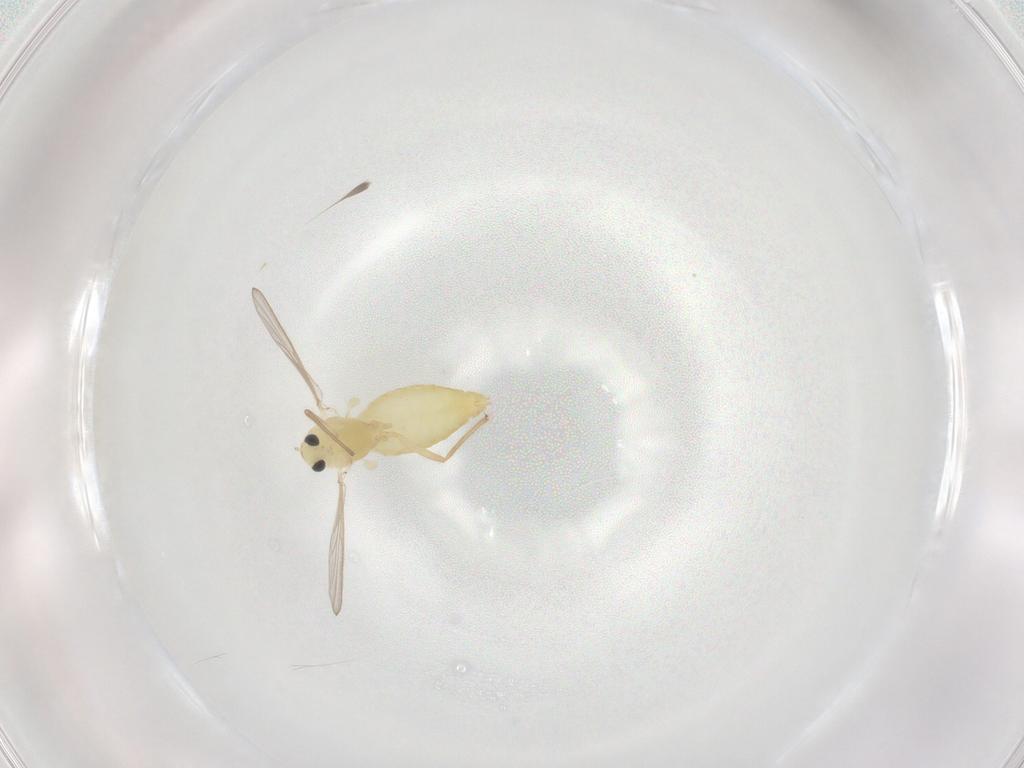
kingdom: Animalia
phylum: Arthropoda
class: Insecta
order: Diptera
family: Chironomidae
